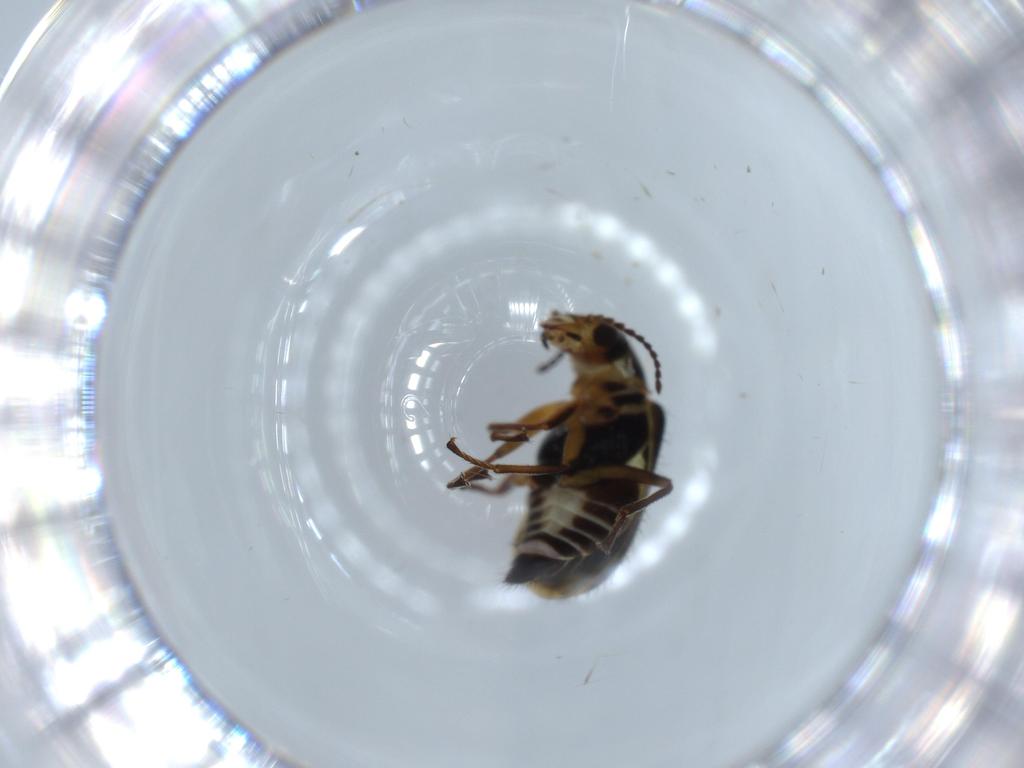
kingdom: Animalia
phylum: Arthropoda
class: Insecta
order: Coleoptera
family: Melyridae
